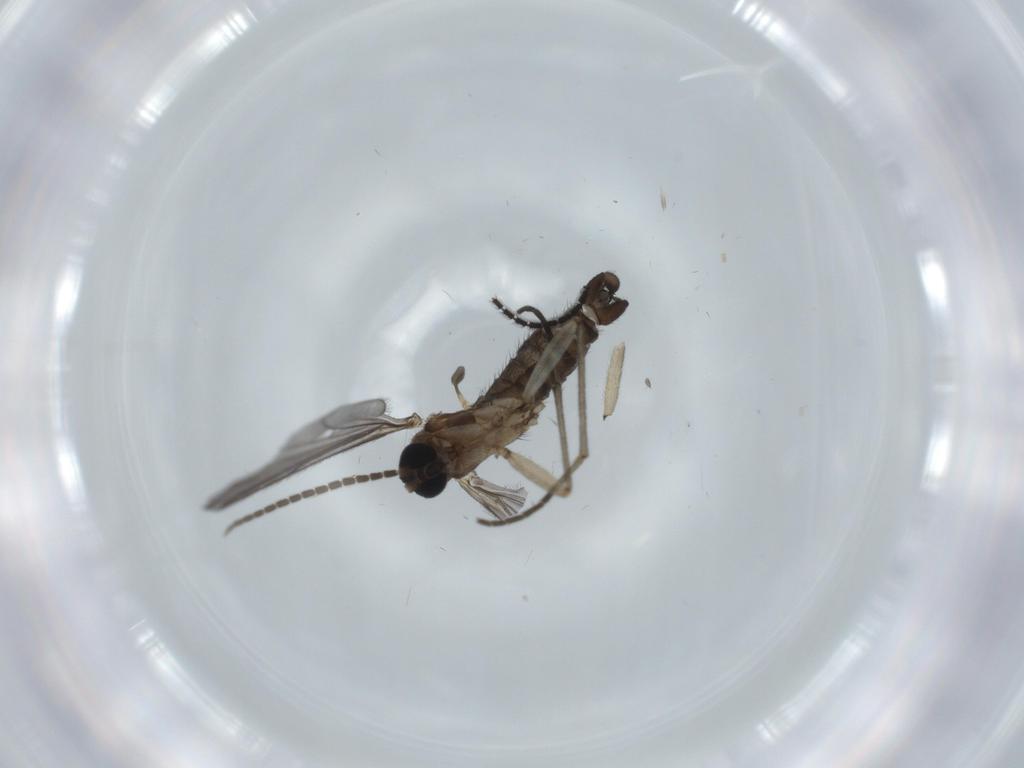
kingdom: Animalia
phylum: Arthropoda
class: Insecta
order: Diptera
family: Sciaridae
